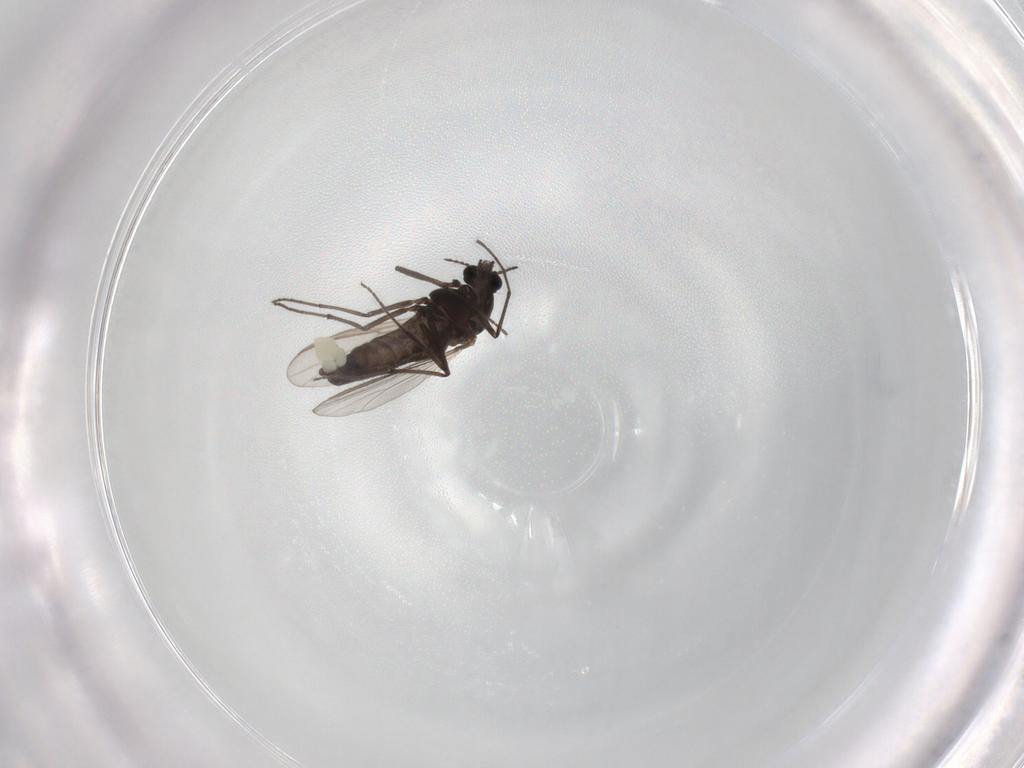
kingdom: Animalia
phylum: Arthropoda
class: Insecta
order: Diptera
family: Chironomidae
